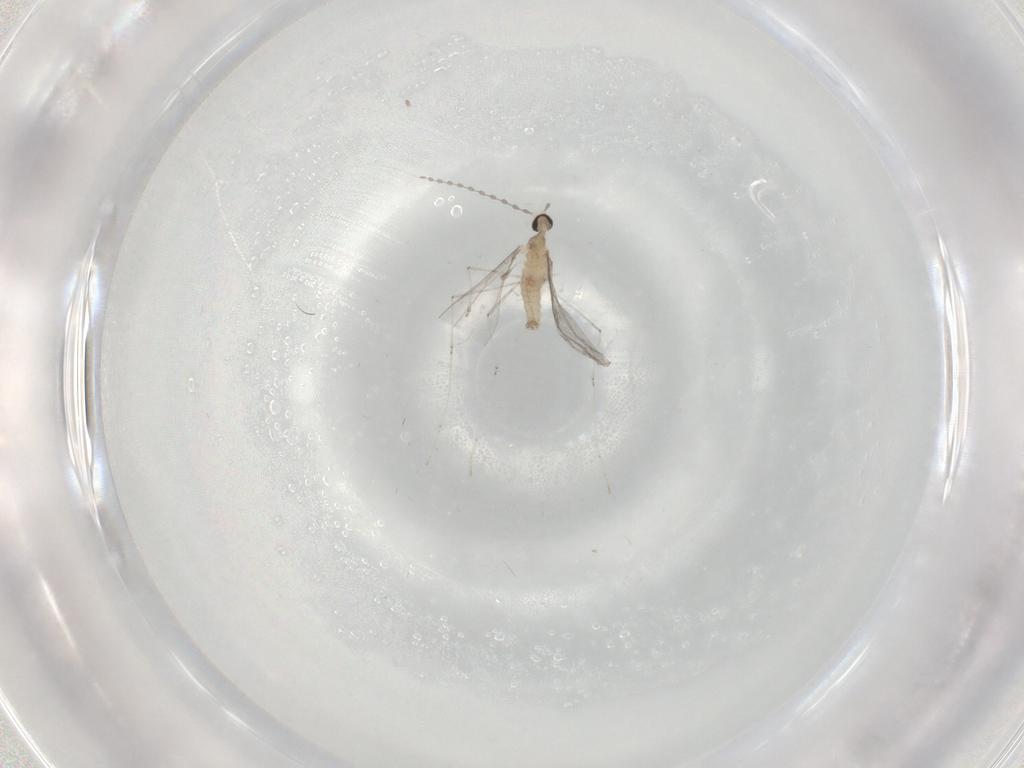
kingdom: Animalia
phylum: Arthropoda
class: Insecta
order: Diptera
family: Cecidomyiidae
